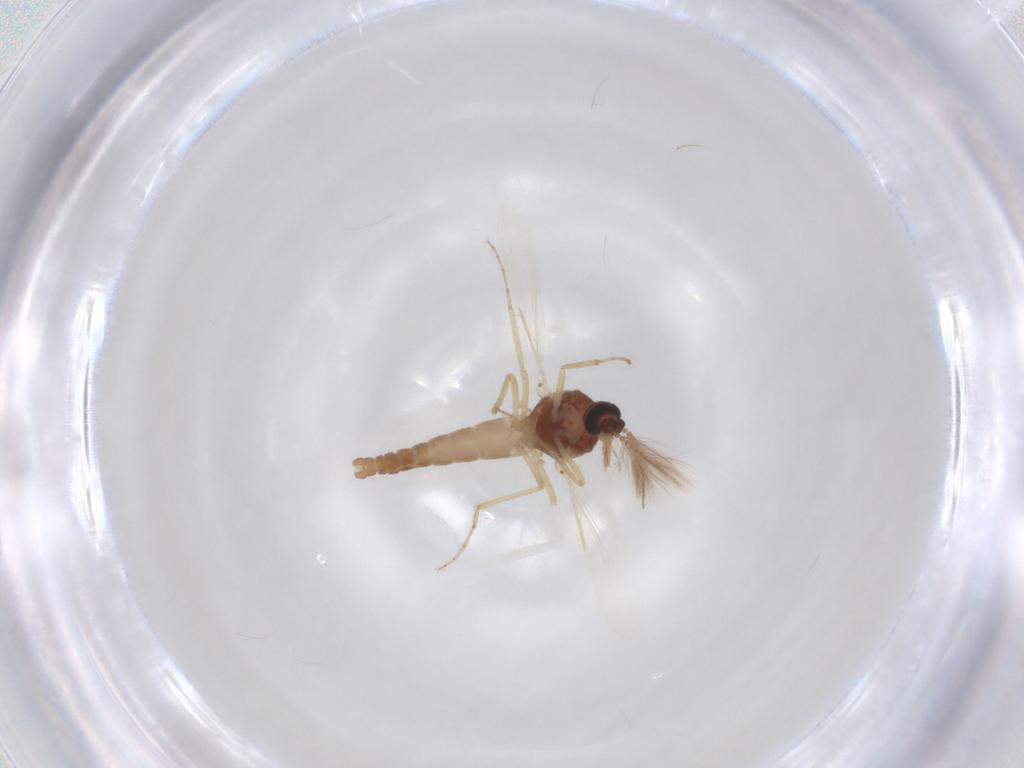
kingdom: Animalia
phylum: Arthropoda
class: Insecta
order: Diptera
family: Ceratopogonidae
